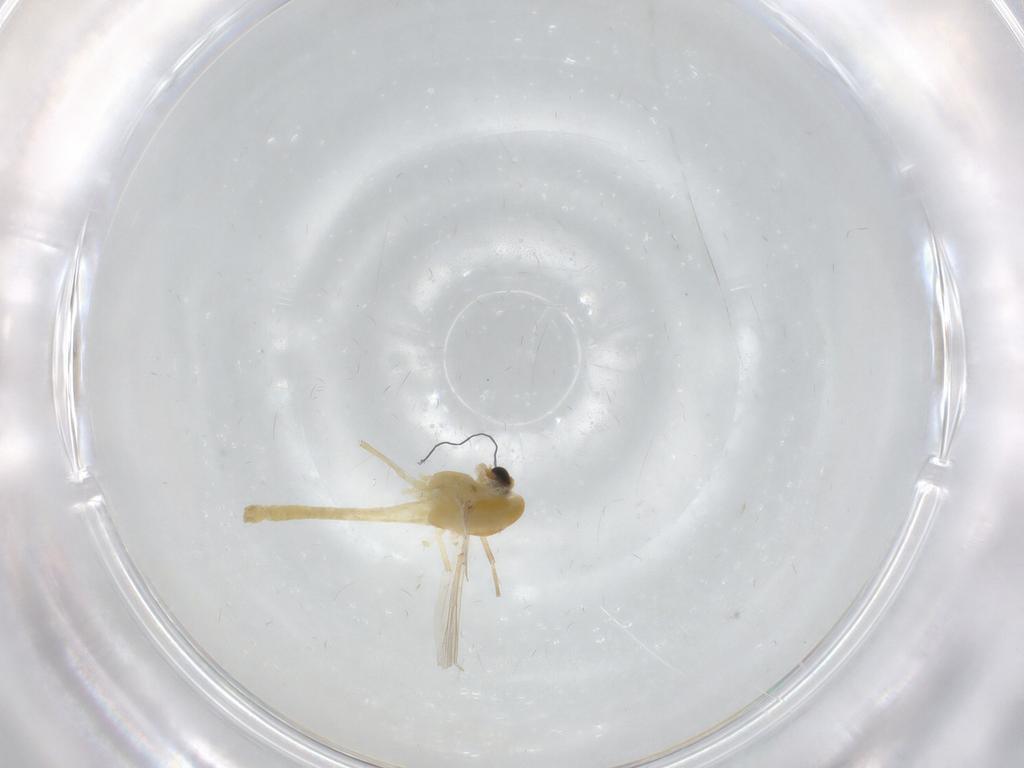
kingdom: Animalia
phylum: Arthropoda
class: Insecta
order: Diptera
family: Chironomidae
